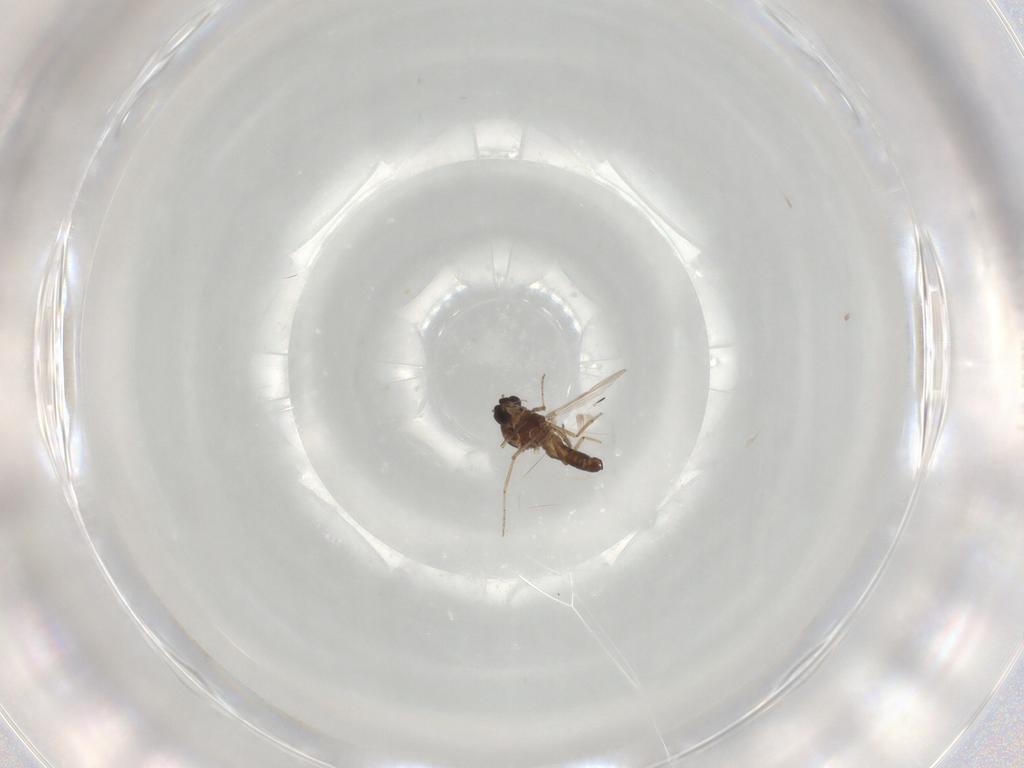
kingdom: Animalia
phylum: Arthropoda
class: Insecta
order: Diptera
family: Ceratopogonidae
